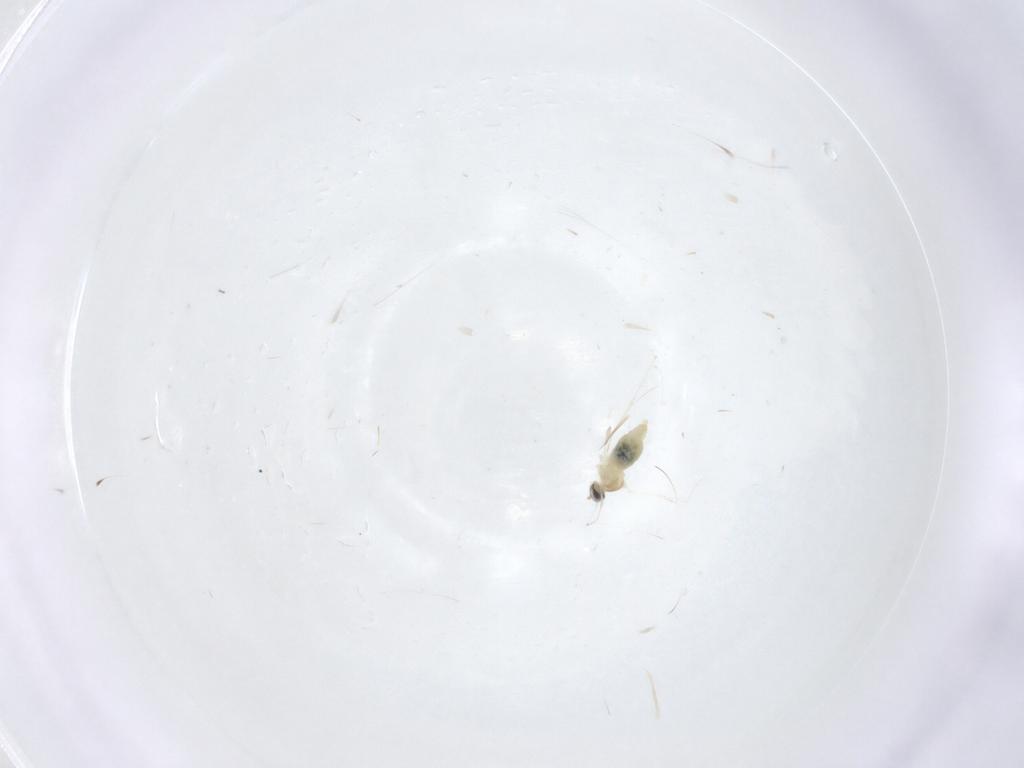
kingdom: Animalia
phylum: Arthropoda
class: Insecta
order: Diptera
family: Cecidomyiidae
